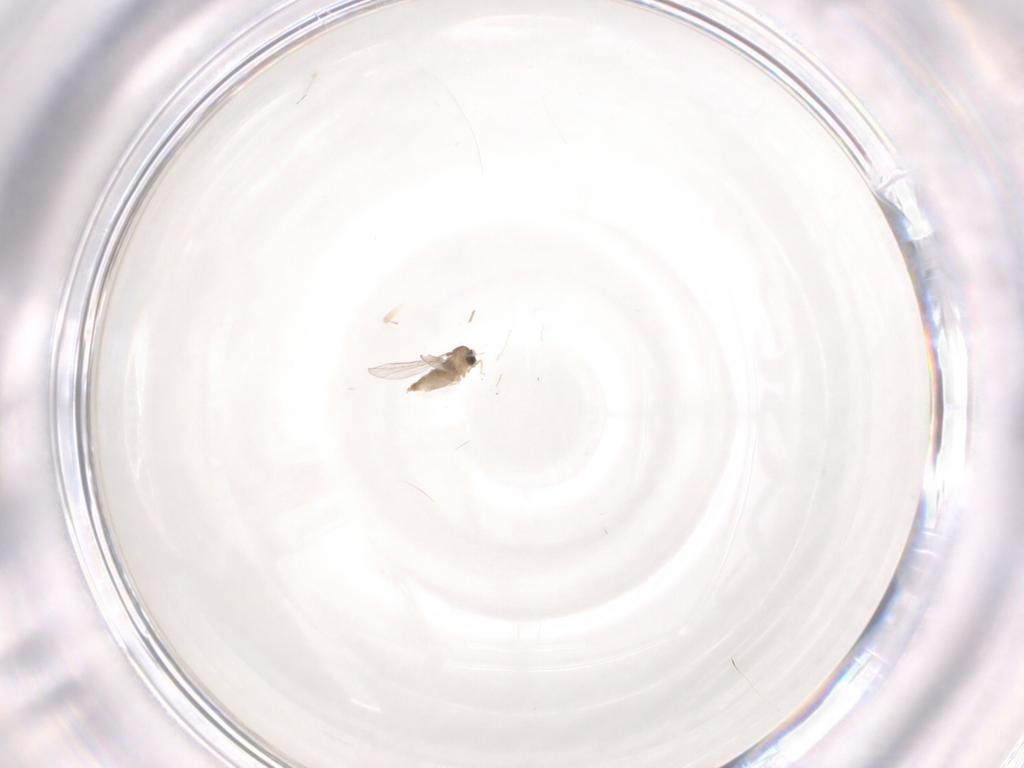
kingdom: Animalia
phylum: Arthropoda
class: Insecta
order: Diptera
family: Cecidomyiidae
